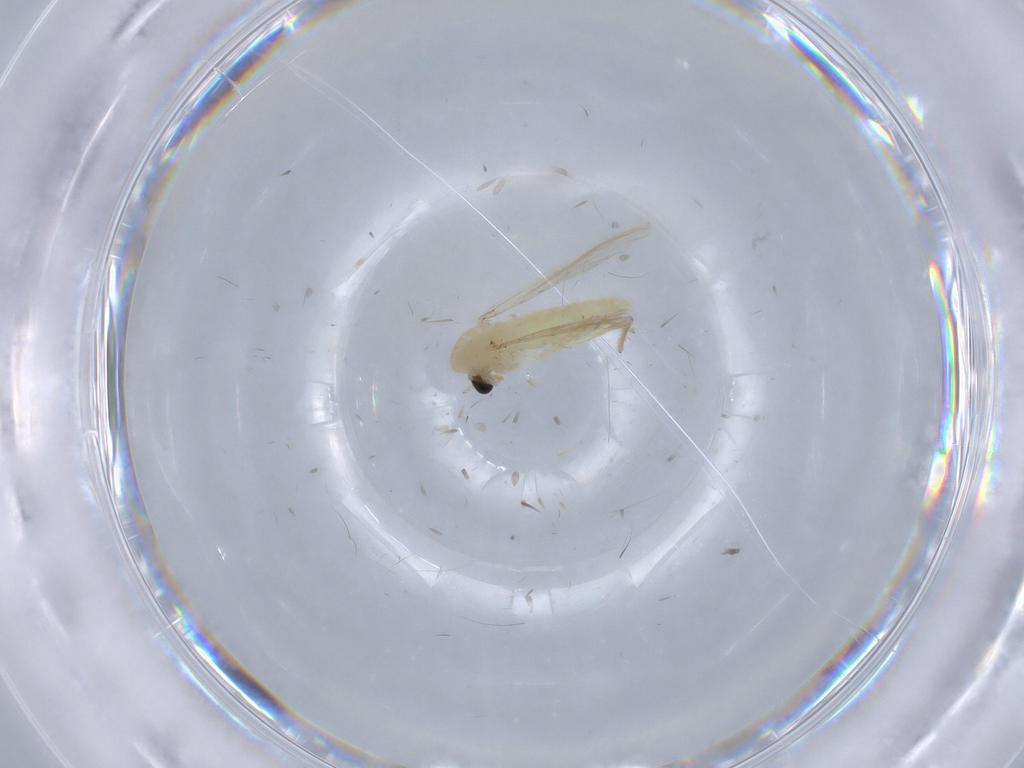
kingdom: Animalia
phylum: Arthropoda
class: Insecta
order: Diptera
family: Chironomidae
